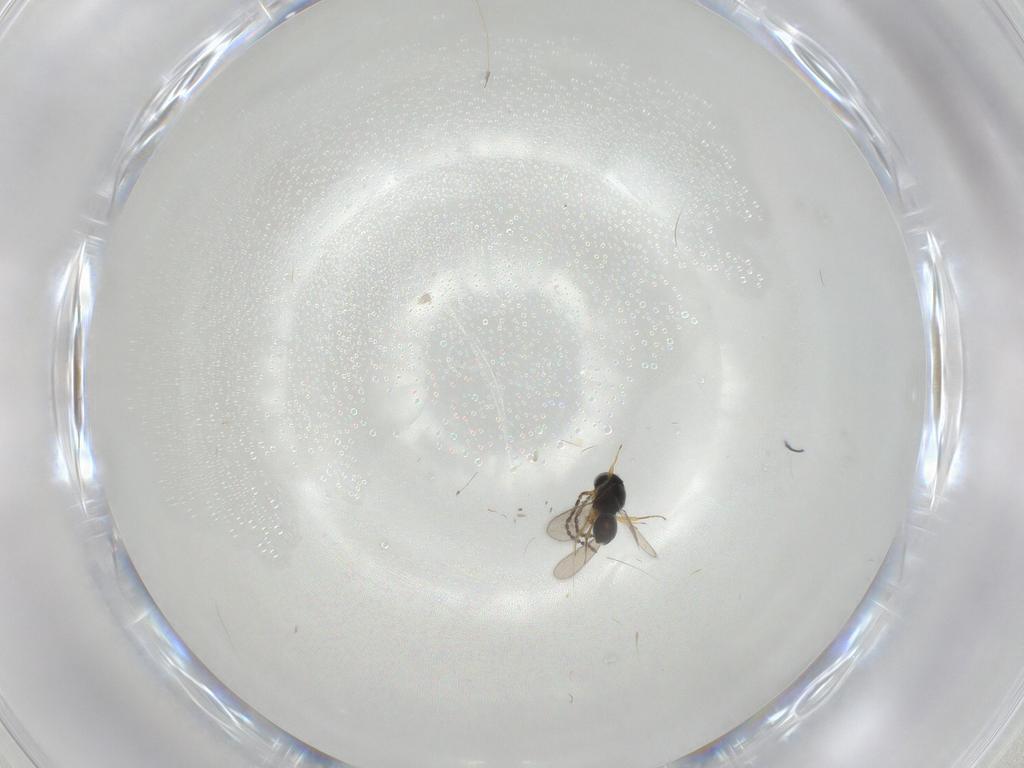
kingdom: Animalia
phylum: Arthropoda
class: Insecta
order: Hymenoptera
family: Scelionidae
